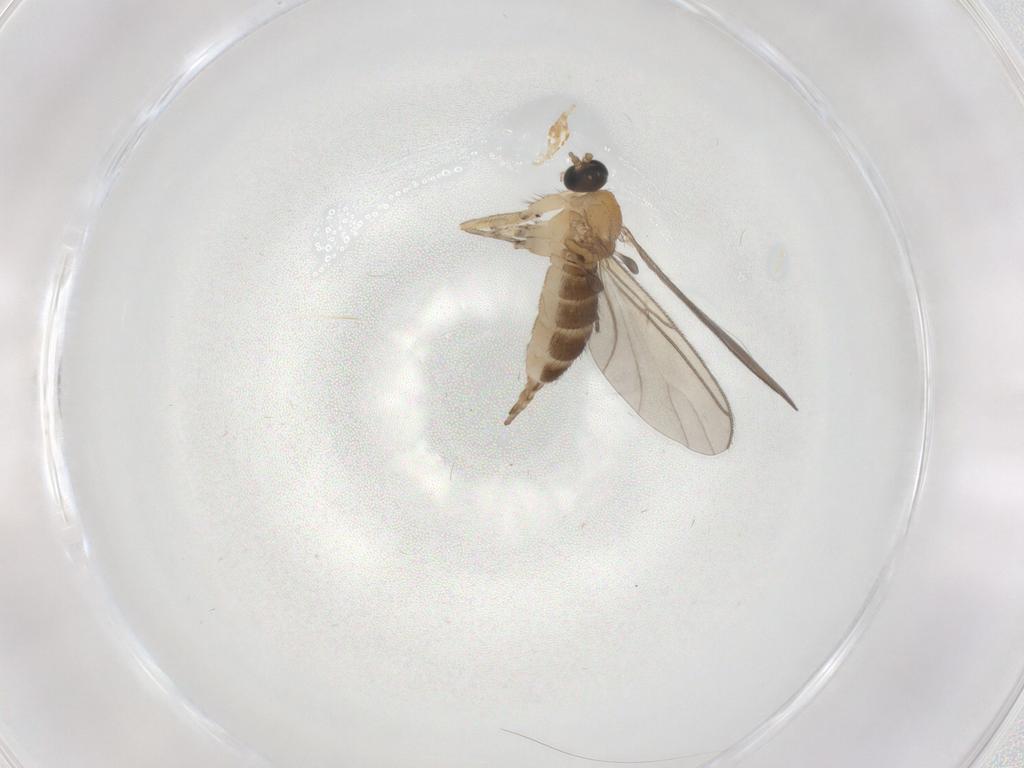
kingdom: Animalia
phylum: Arthropoda
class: Insecta
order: Diptera
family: Sciaridae
